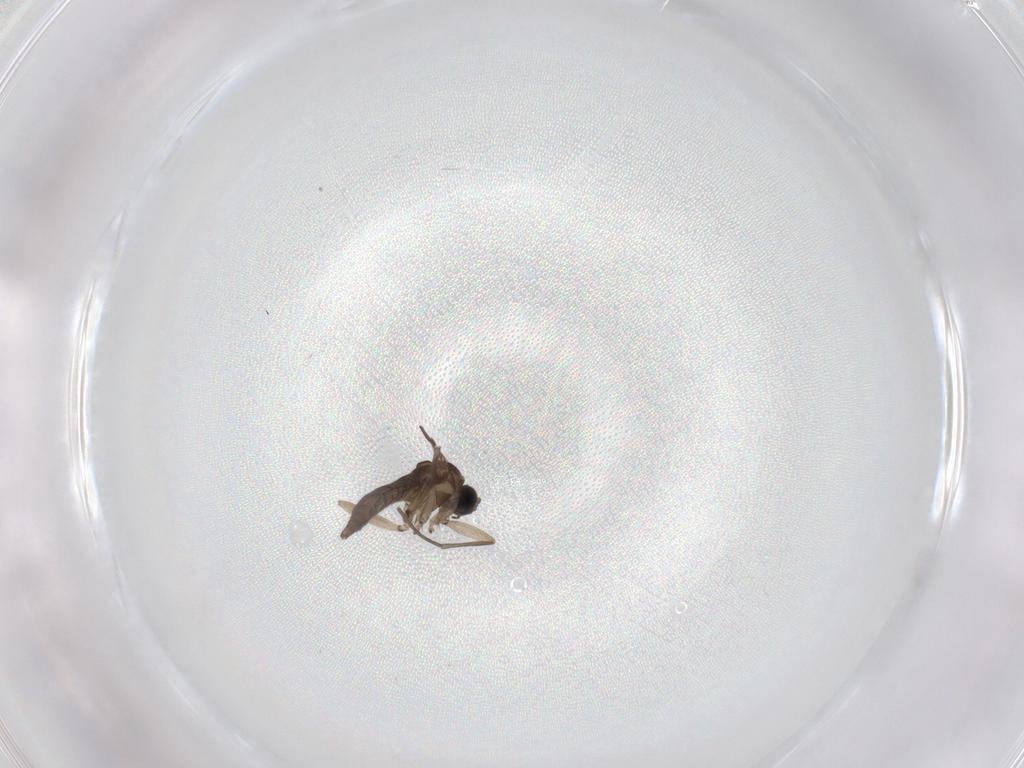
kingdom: Animalia
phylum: Arthropoda
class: Insecta
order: Diptera
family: Sciaridae
